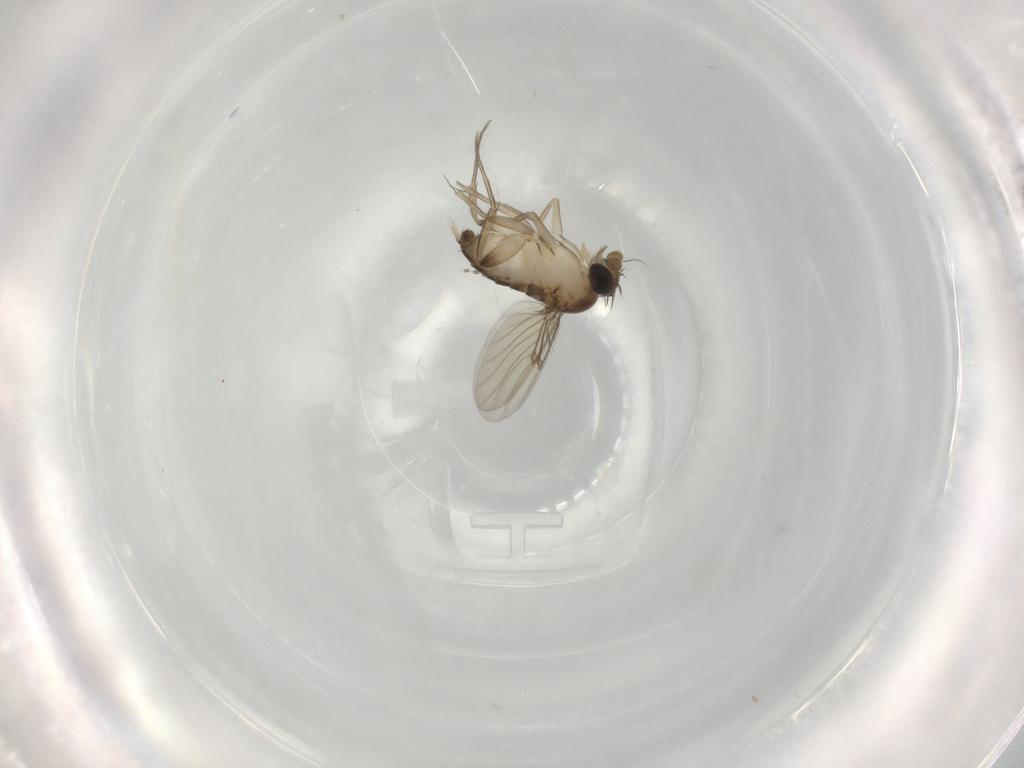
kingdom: Animalia
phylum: Arthropoda
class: Insecta
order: Diptera
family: Phoridae
